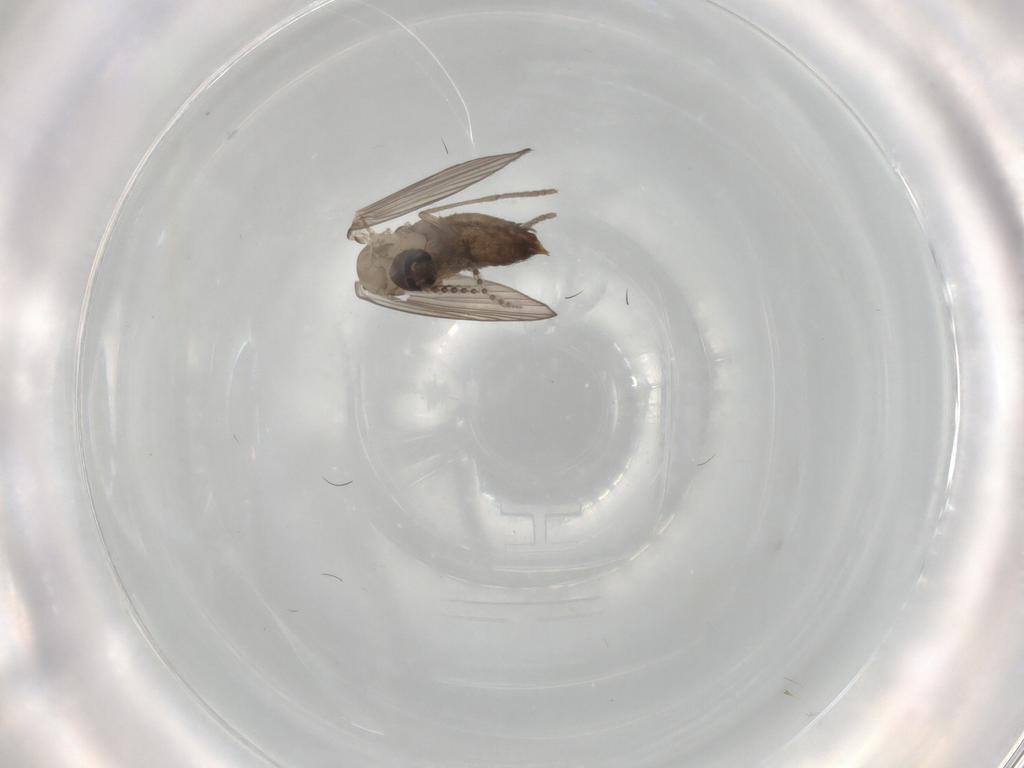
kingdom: Animalia
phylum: Arthropoda
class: Insecta
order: Diptera
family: Psychodidae
